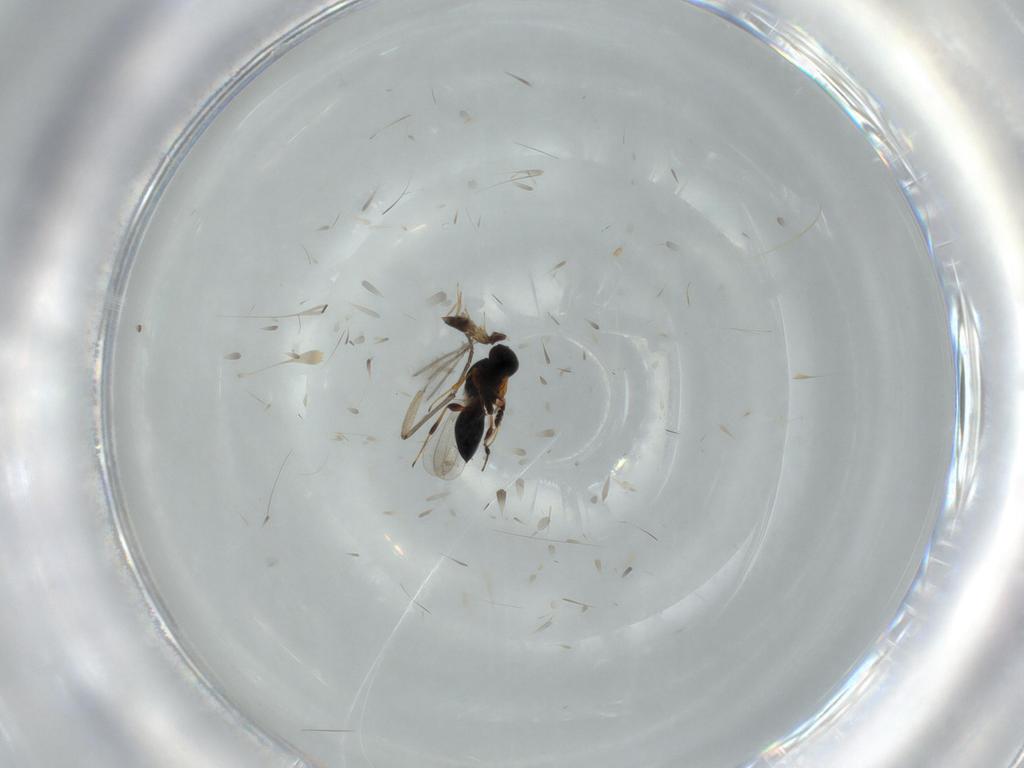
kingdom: Animalia
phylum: Arthropoda
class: Insecta
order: Hymenoptera
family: Mymaridae
